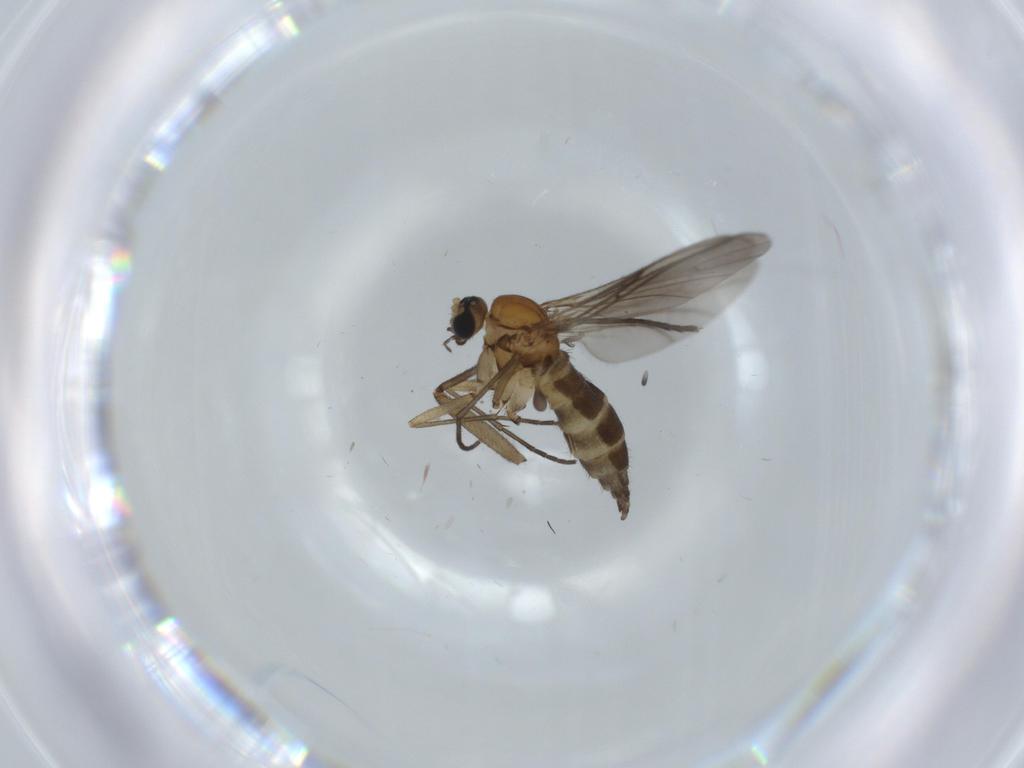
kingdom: Animalia
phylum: Arthropoda
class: Insecta
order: Diptera
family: Sciaridae
